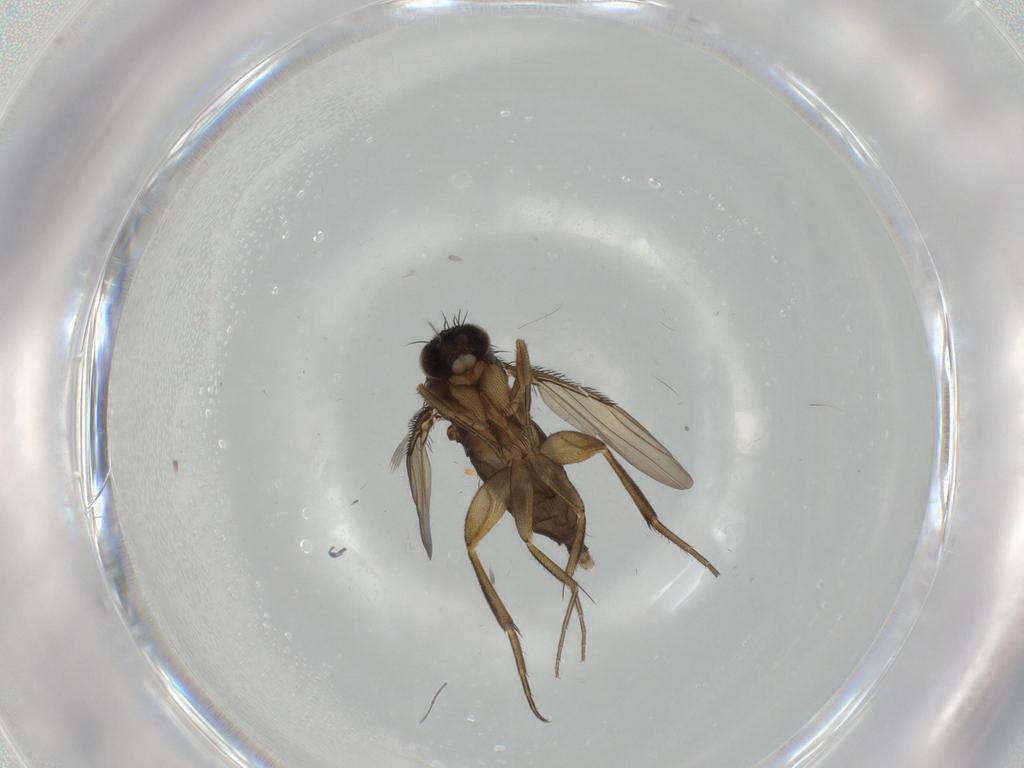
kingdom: Animalia
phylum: Arthropoda
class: Insecta
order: Diptera
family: Phoridae
